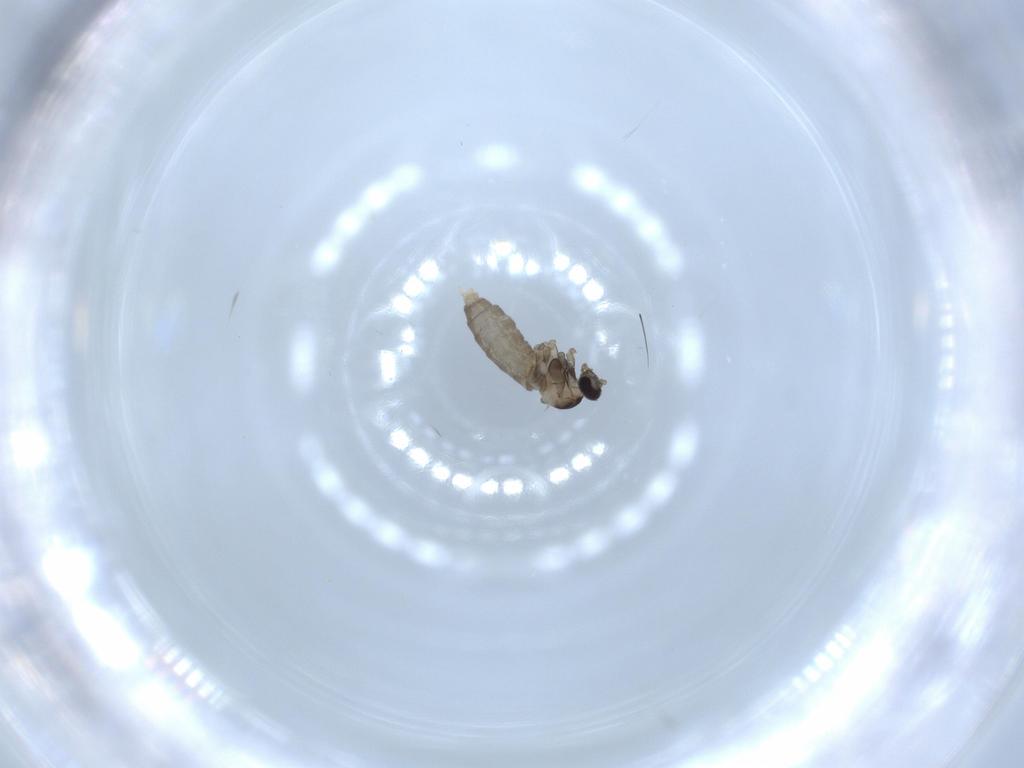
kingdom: Animalia
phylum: Arthropoda
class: Insecta
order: Diptera
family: Cecidomyiidae
